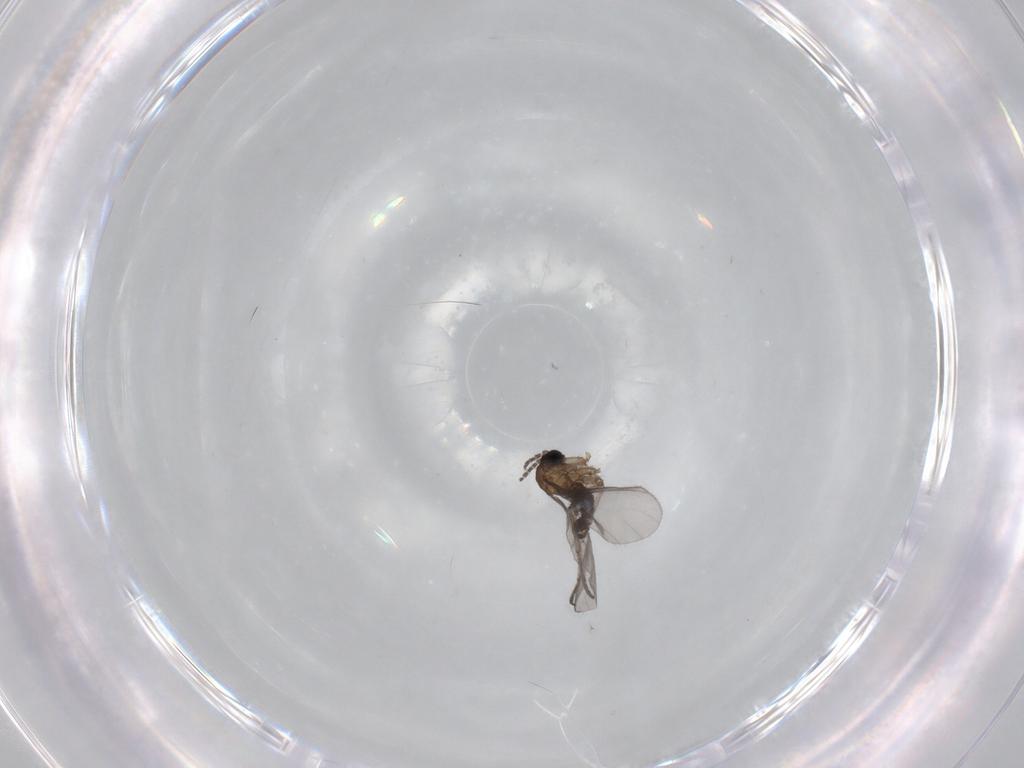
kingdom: Animalia
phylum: Arthropoda
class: Insecta
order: Diptera
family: Sciaridae
